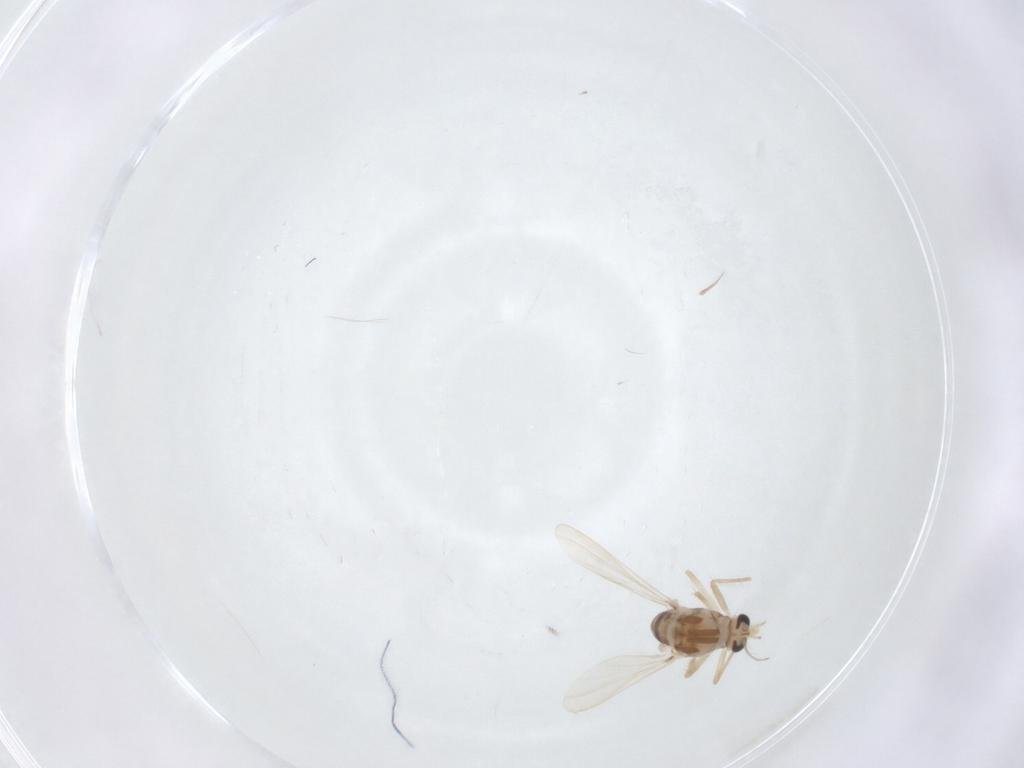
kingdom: Animalia
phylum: Arthropoda
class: Insecta
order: Diptera
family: Chironomidae
